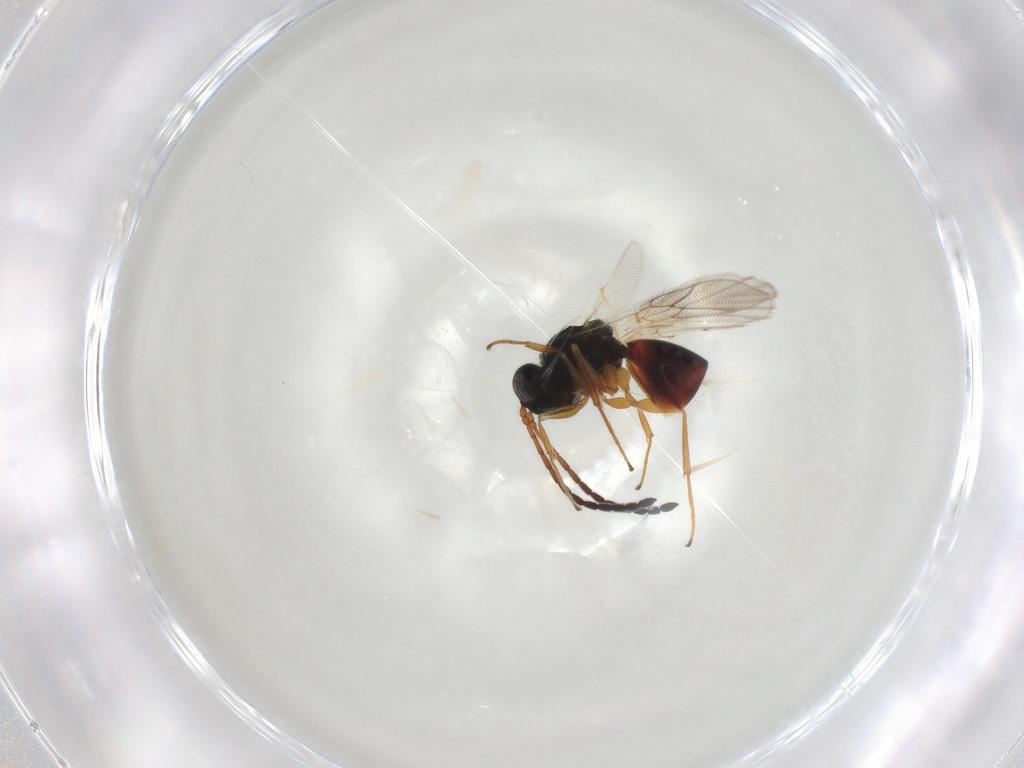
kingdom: Animalia
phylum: Arthropoda
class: Insecta
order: Hymenoptera
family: Figitidae
